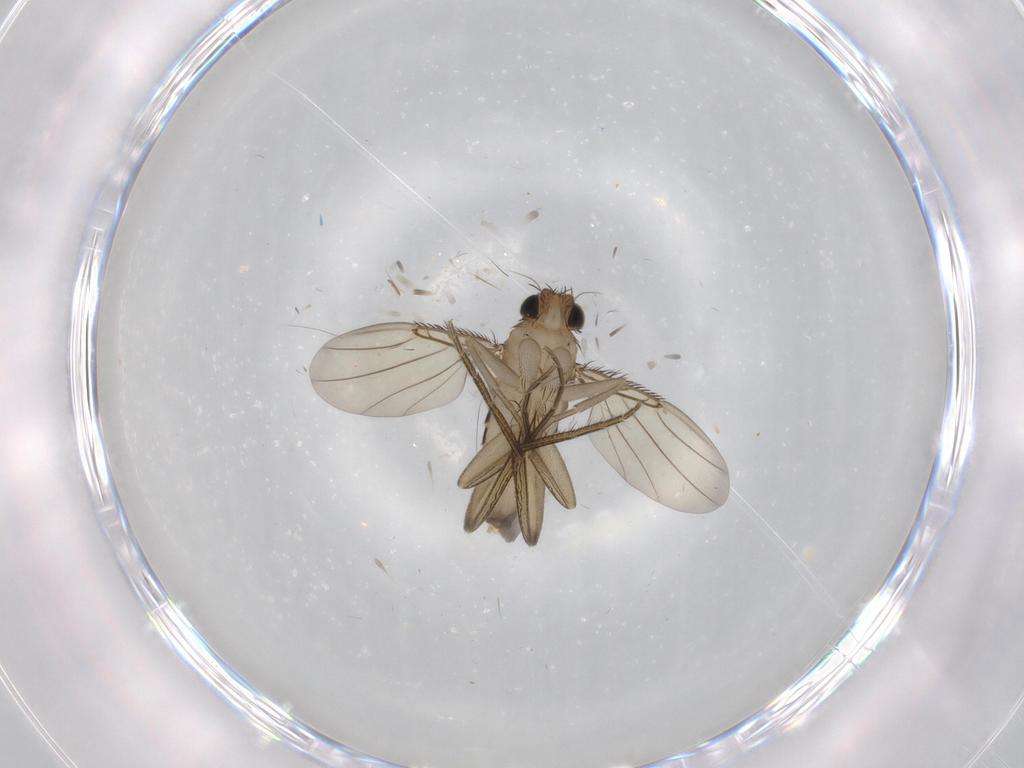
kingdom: Animalia
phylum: Arthropoda
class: Insecta
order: Diptera
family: Phoridae
